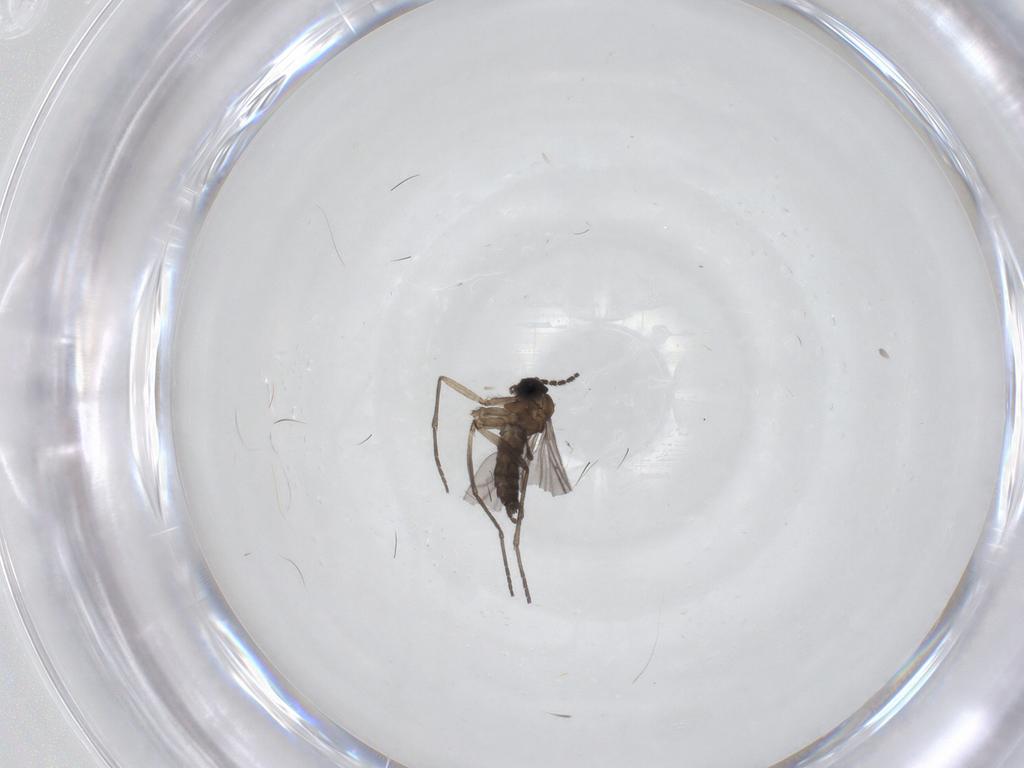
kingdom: Animalia
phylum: Arthropoda
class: Insecta
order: Diptera
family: Sciaridae
